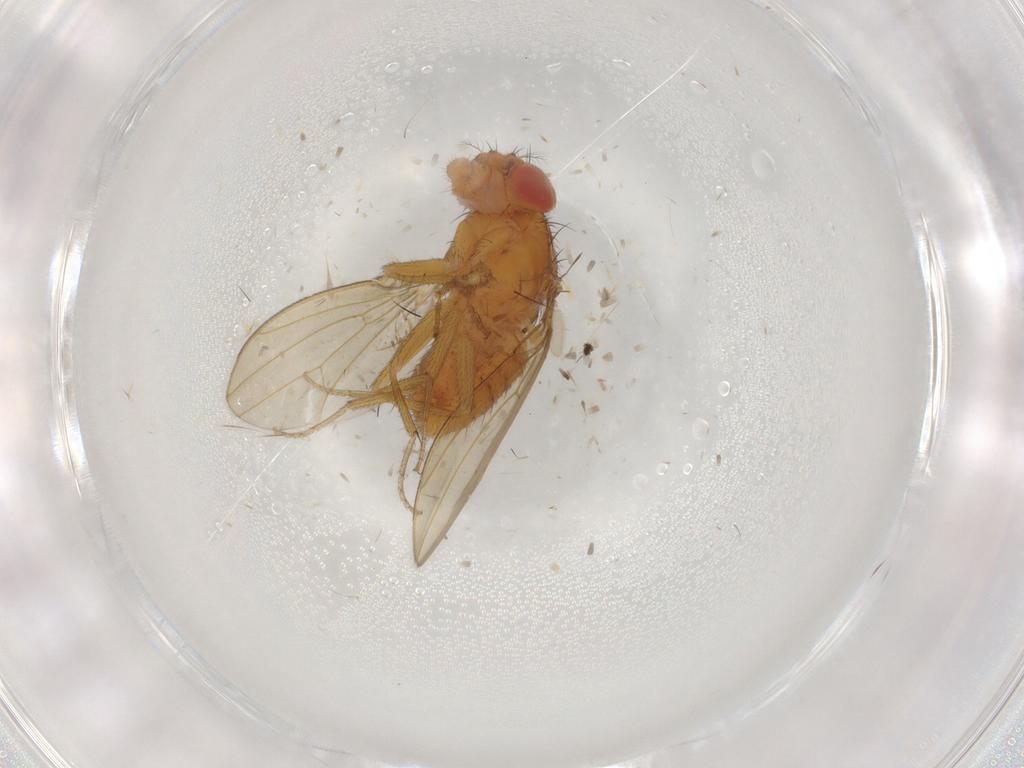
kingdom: Animalia
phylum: Arthropoda
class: Insecta
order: Diptera
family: Drosophilidae
